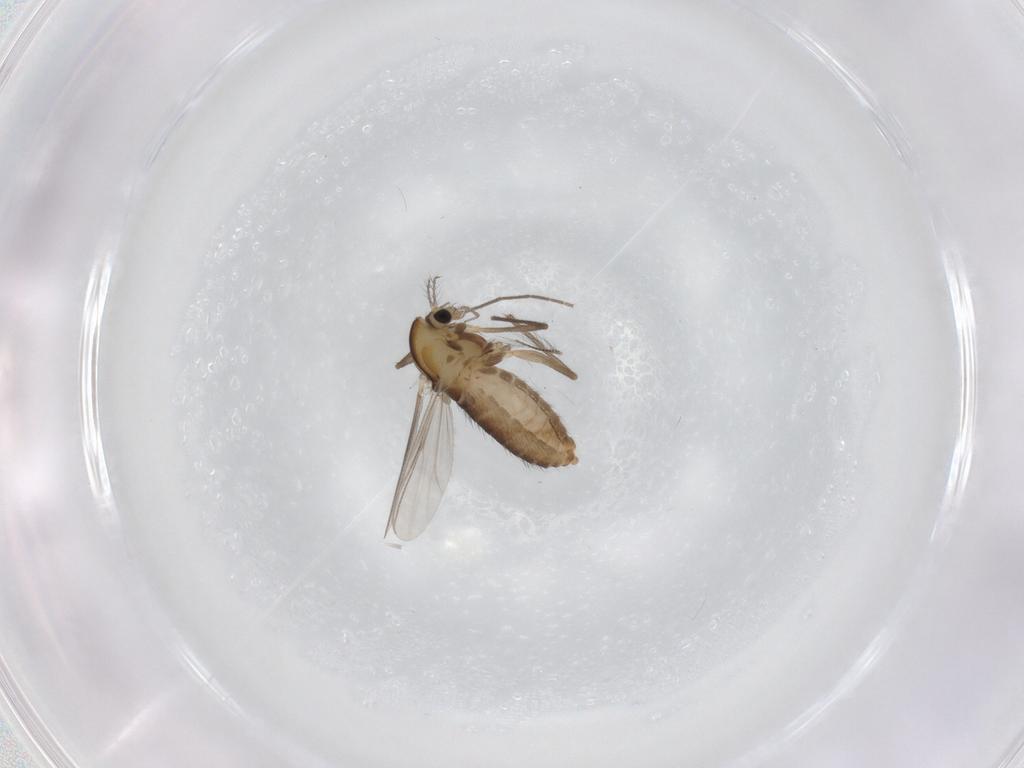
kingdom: Animalia
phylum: Arthropoda
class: Insecta
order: Diptera
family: Chironomidae
